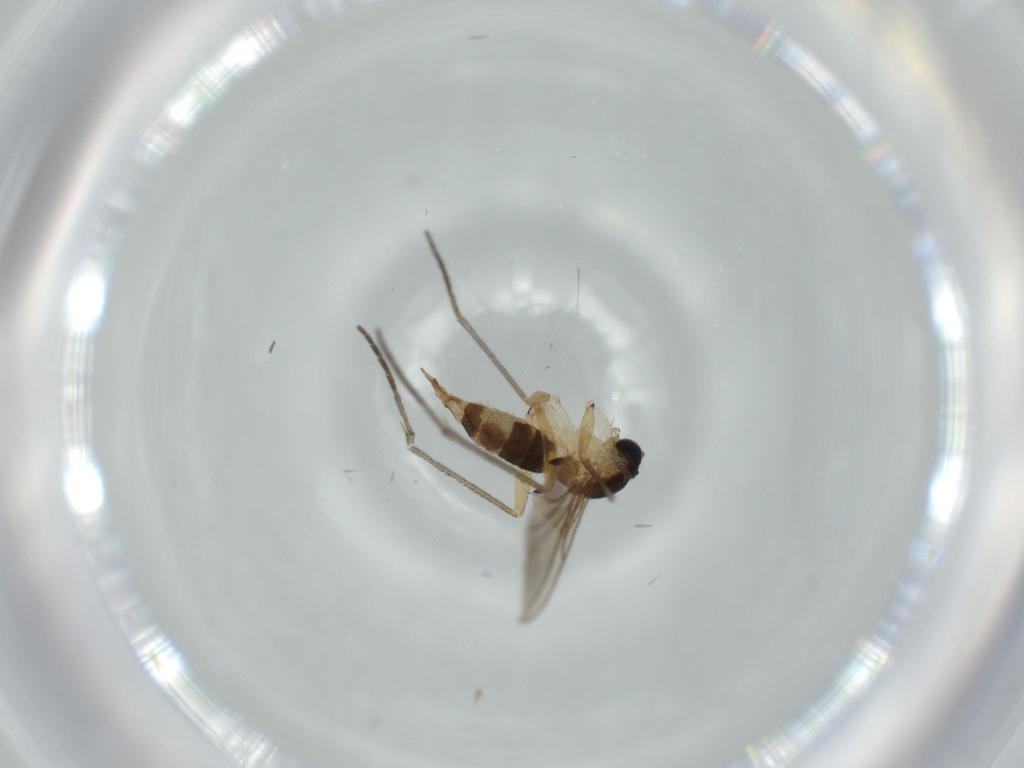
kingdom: Animalia
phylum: Arthropoda
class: Insecta
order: Diptera
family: Sciaridae
